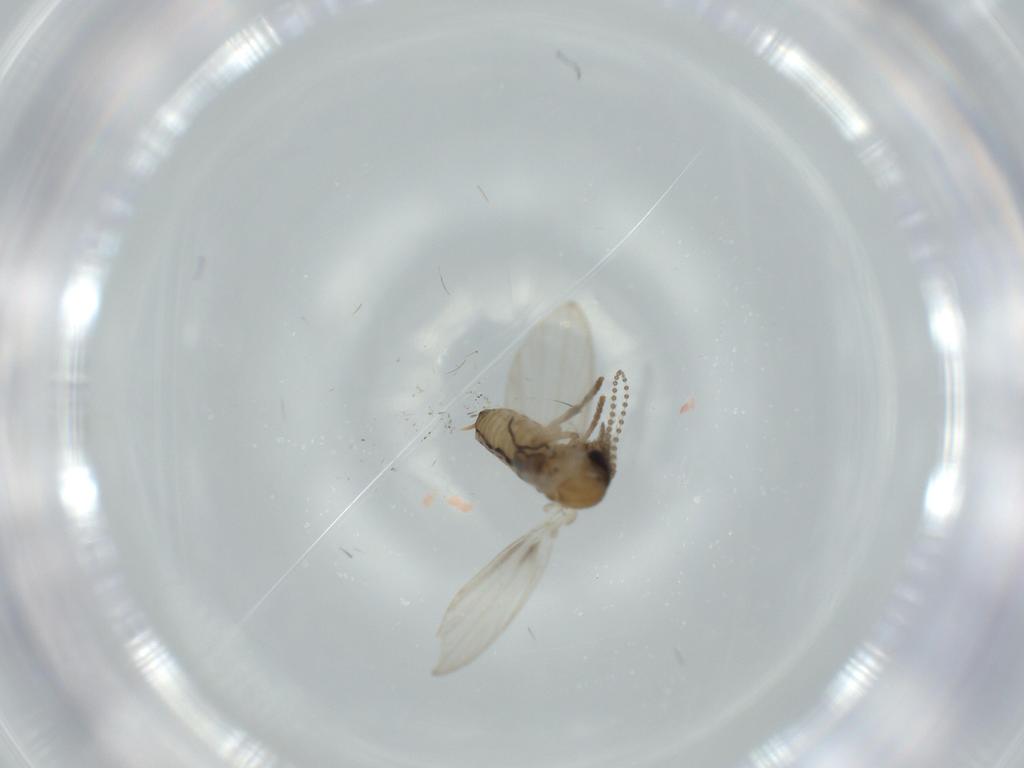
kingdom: Animalia
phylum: Arthropoda
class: Insecta
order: Diptera
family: Psychodidae
